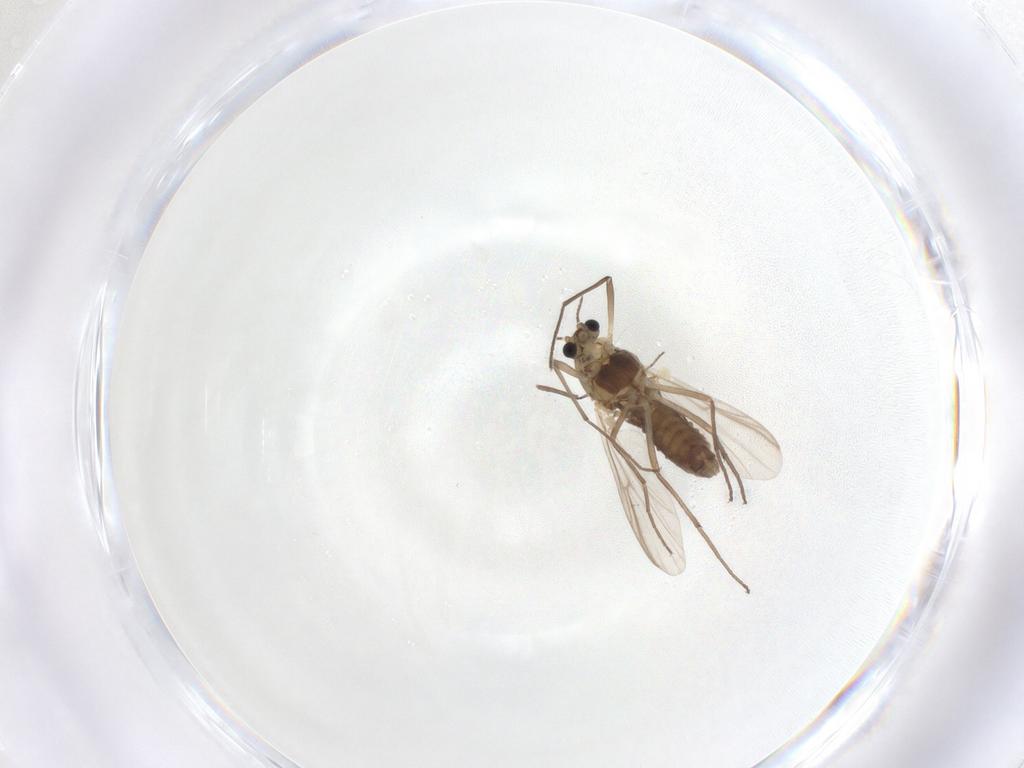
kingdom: Animalia
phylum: Arthropoda
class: Insecta
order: Diptera
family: Chironomidae
